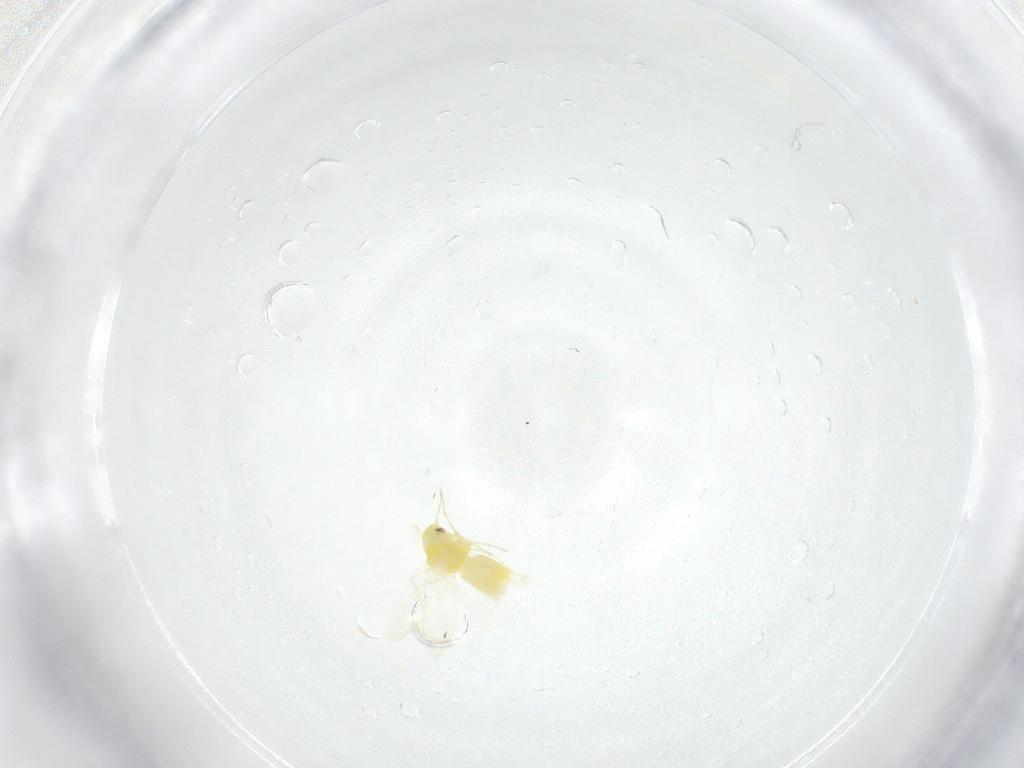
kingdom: Animalia
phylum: Arthropoda
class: Insecta
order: Hemiptera
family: Aleyrodidae
